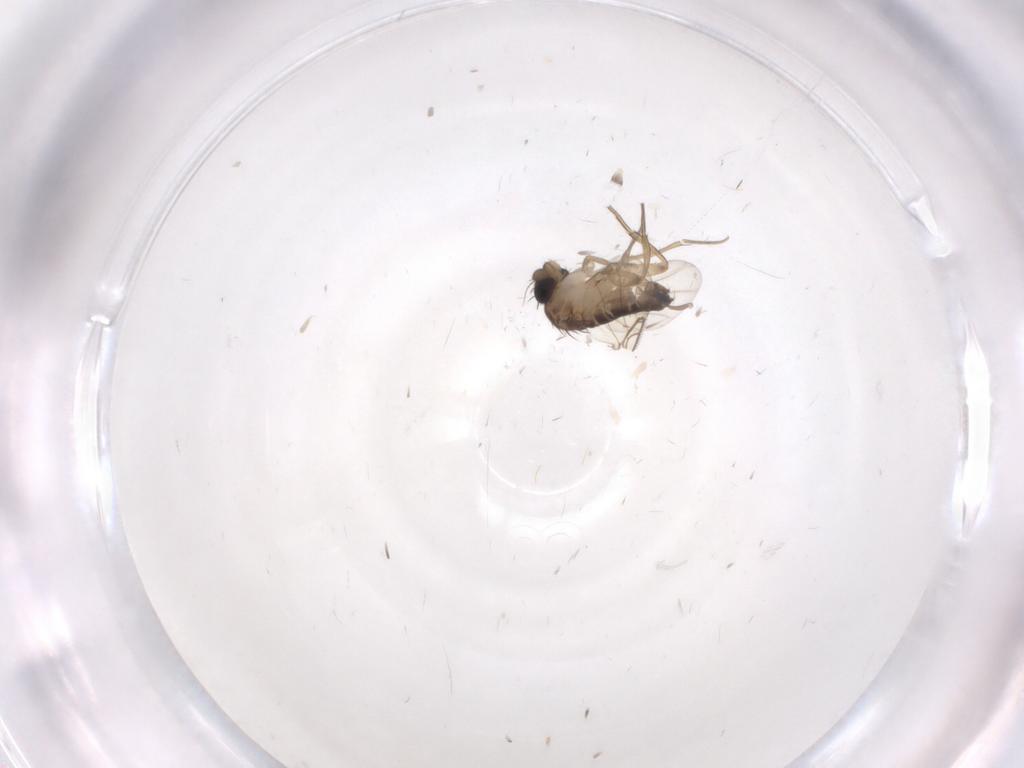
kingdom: Animalia
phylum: Arthropoda
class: Insecta
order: Diptera
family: Phoridae
